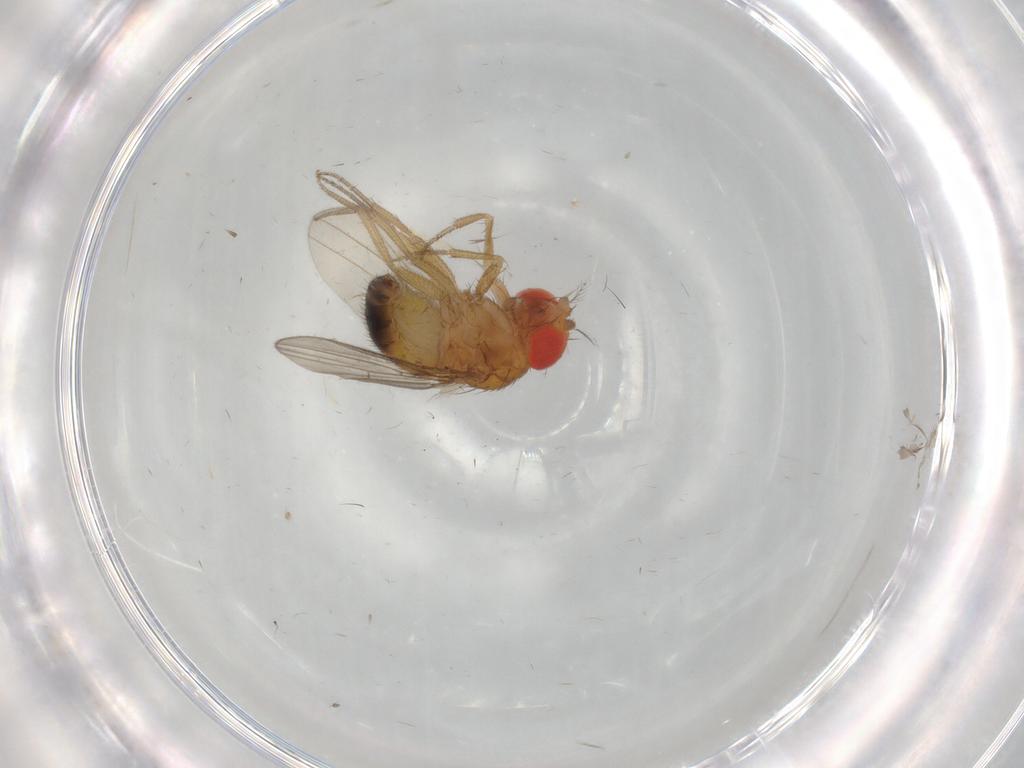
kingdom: Animalia
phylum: Arthropoda
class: Insecta
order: Diptera
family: Drosophilidae
